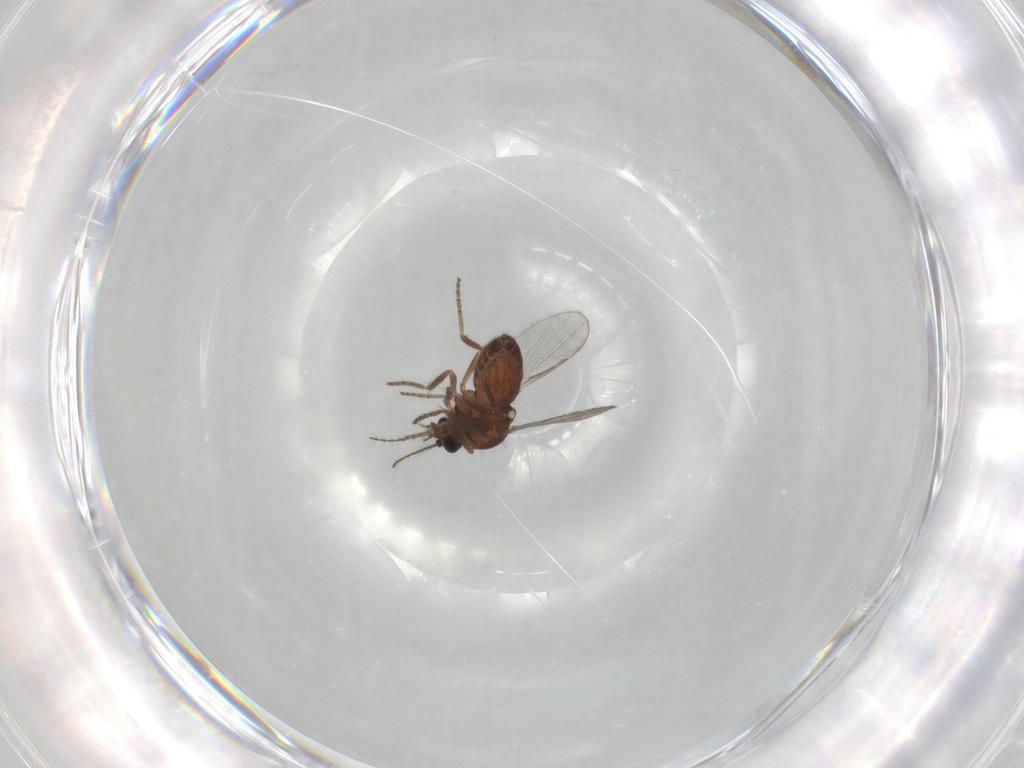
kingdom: Animalia
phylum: Arthropoda
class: Insecta
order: Diptera
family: Ceratopogonidae
